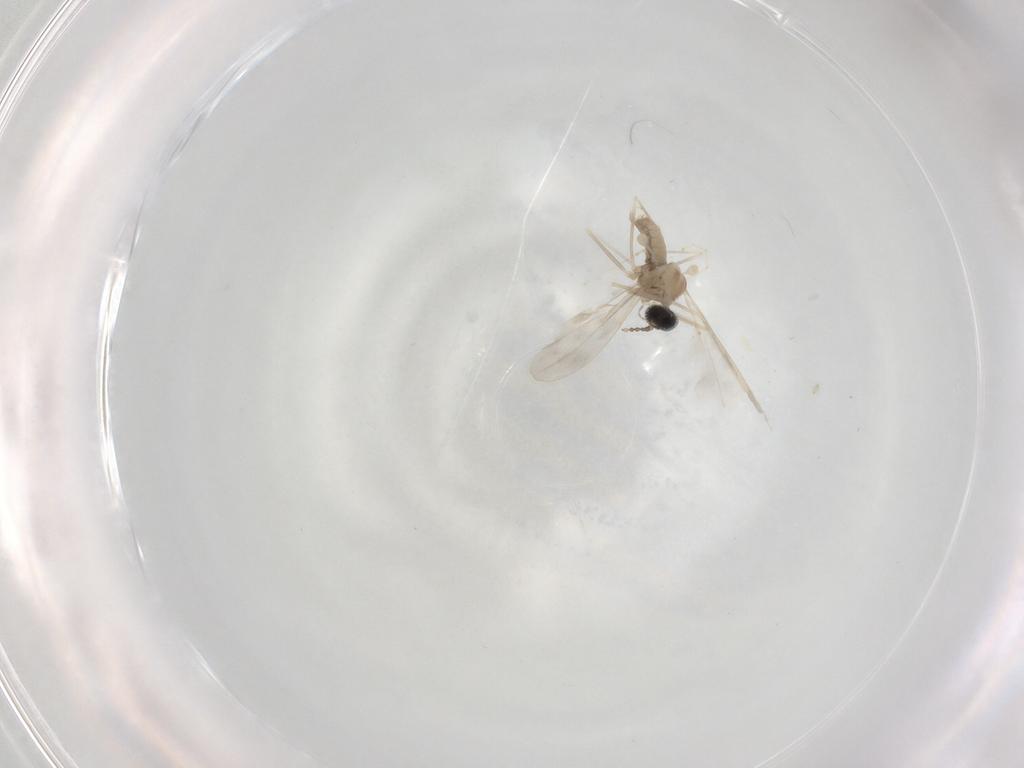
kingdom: Animalia
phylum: Arthropoda
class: Insecta
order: Diptera
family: Cecidomyiidae
